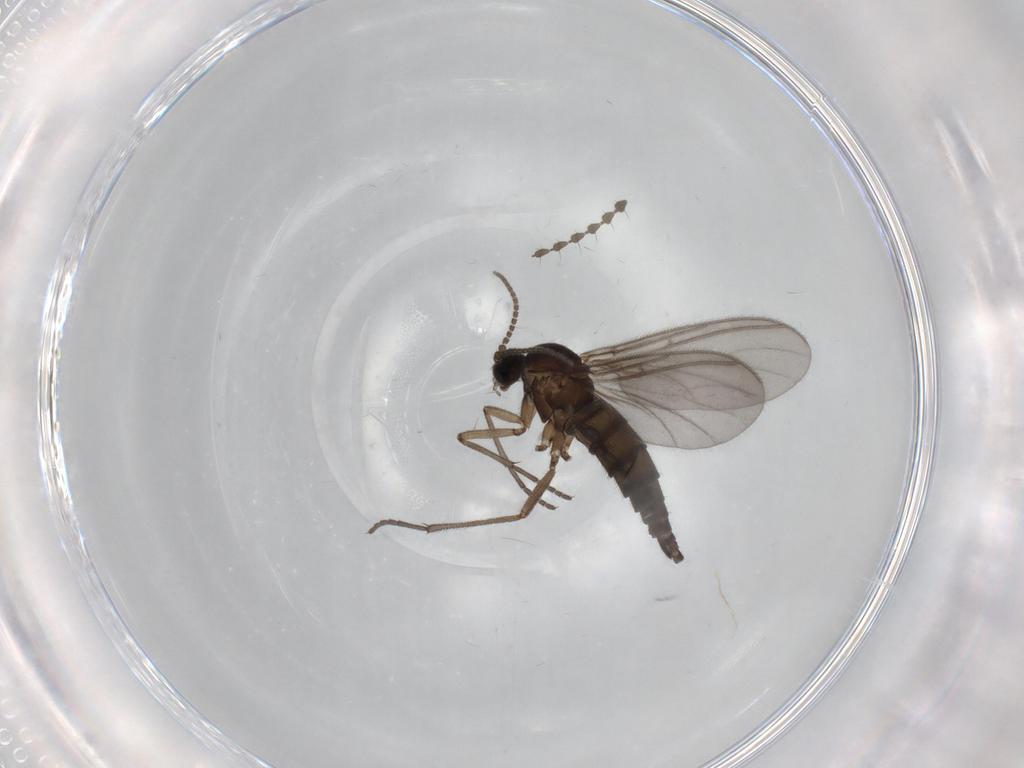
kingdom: Animalia
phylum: Arthropoda
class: Insecta
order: Diptera
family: Sciaridae
